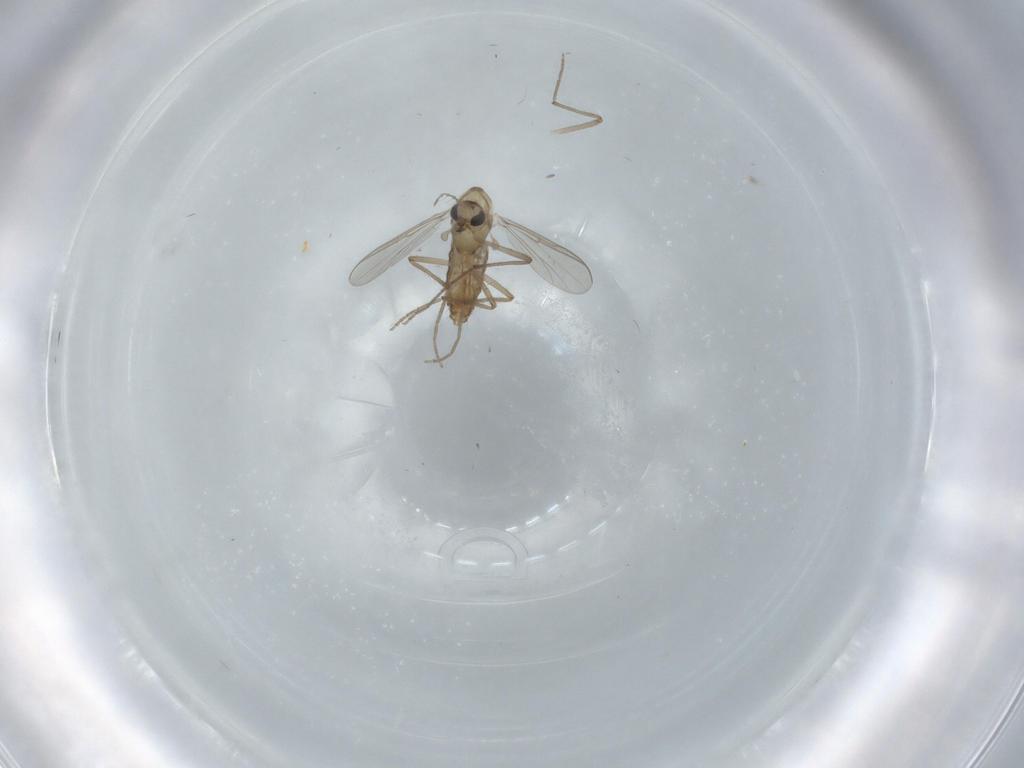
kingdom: Animalia
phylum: Arthropoda
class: Insecta
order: Diptera
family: Chironomidae
